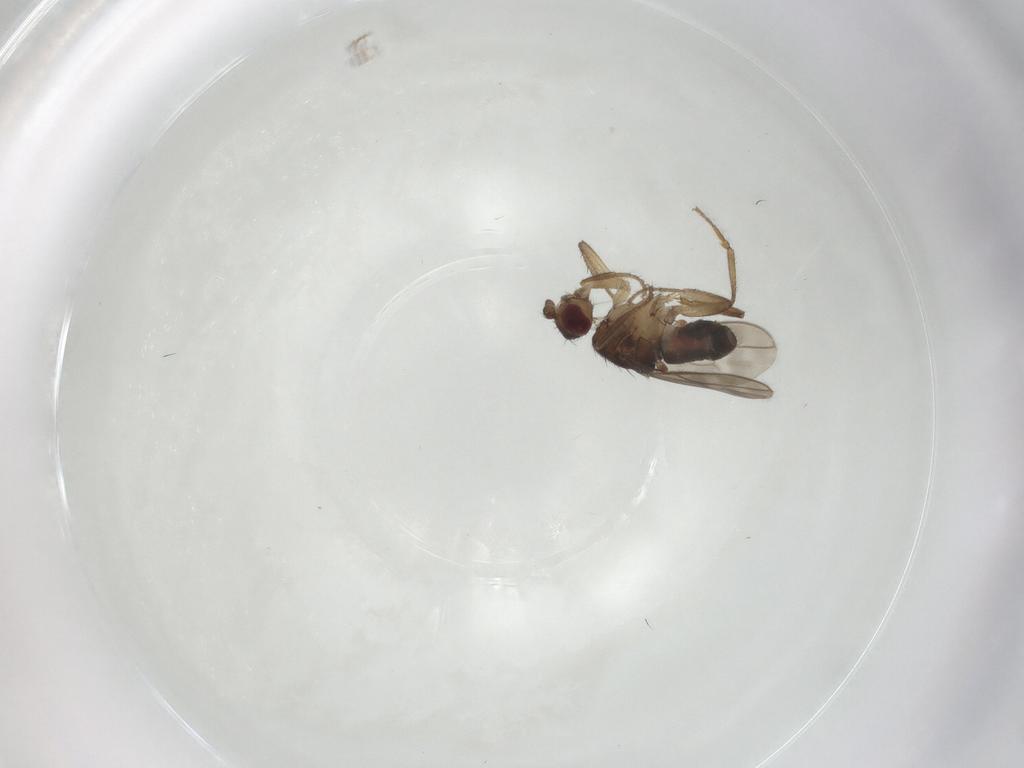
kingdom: Animalia
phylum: Arthropoda
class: Insecta
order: Diptera
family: Sphaeroceridae
